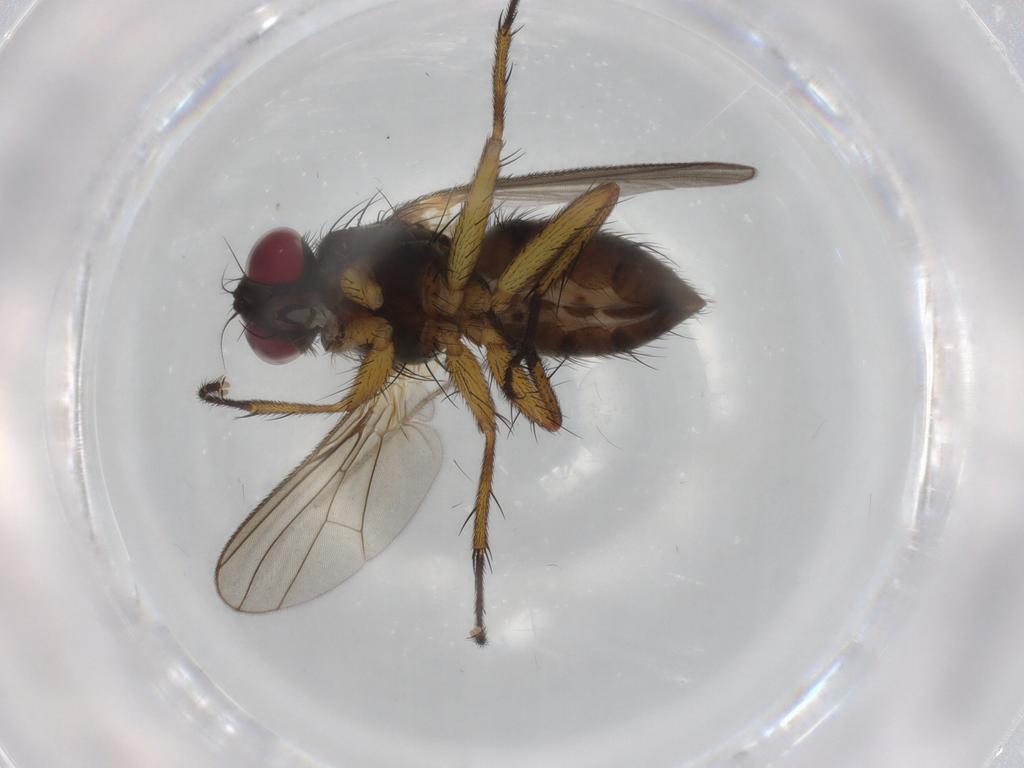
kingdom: Animalia
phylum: Arthropoda
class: Insecta
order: Diptera
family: Muscidae
